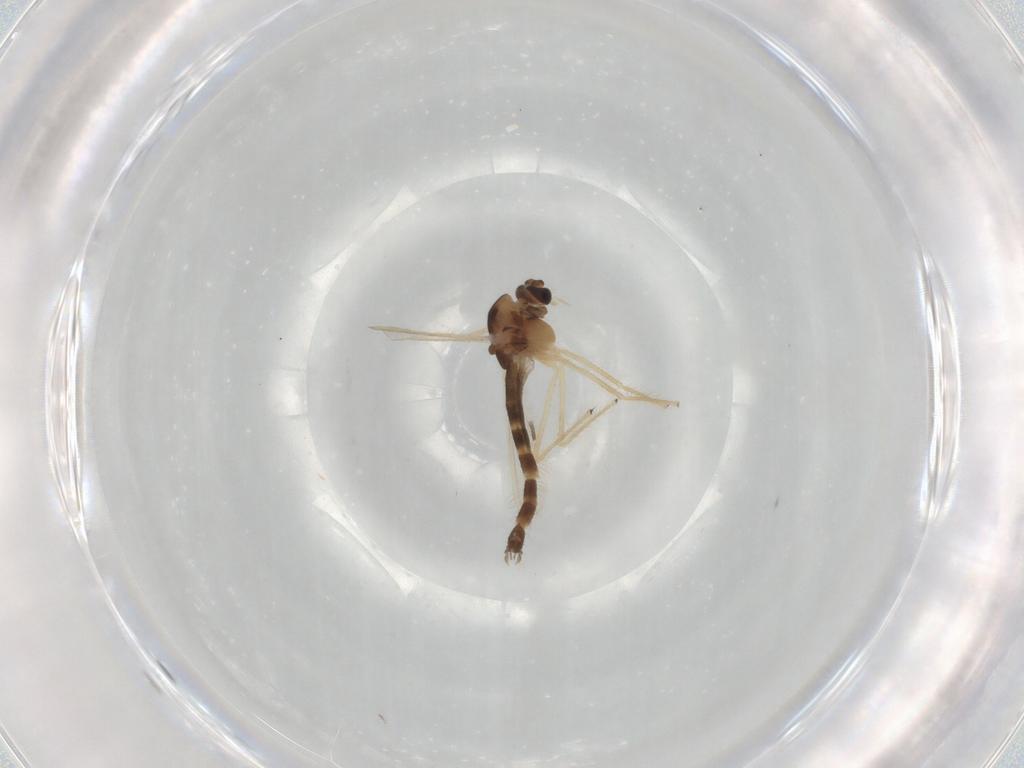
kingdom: Animalia
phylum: Arthropoda
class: Insecta
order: Diptera
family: Chironomidae
